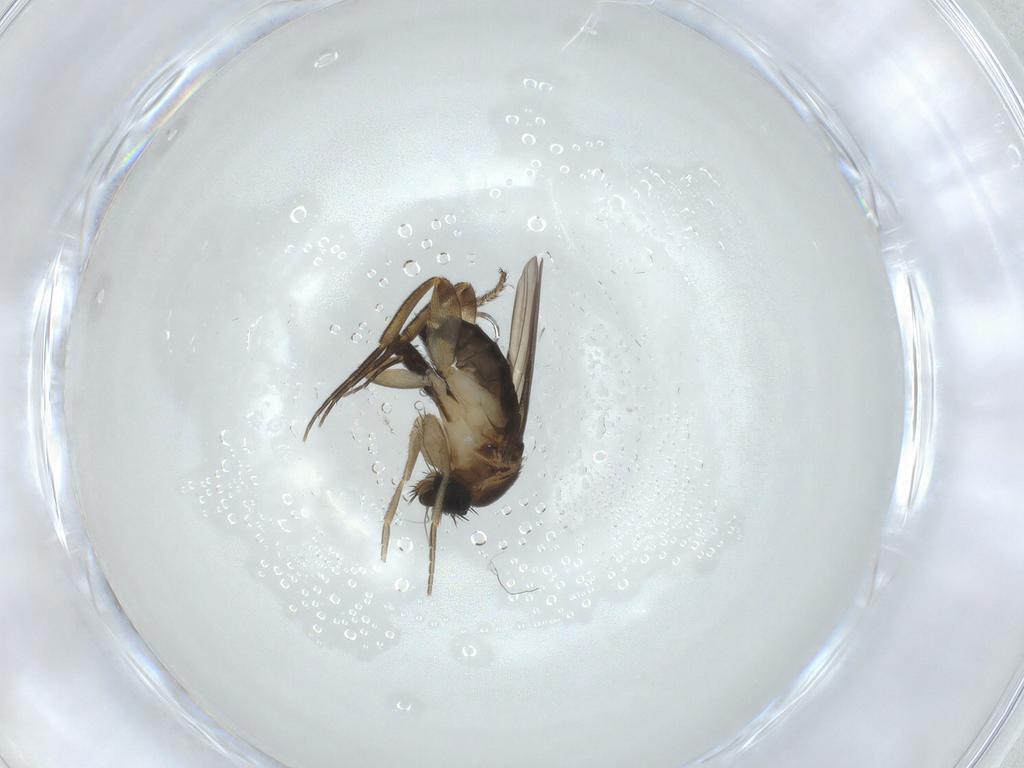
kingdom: Animalia
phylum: Arthropoda
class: Insecta
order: Diptera
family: Phoridae
